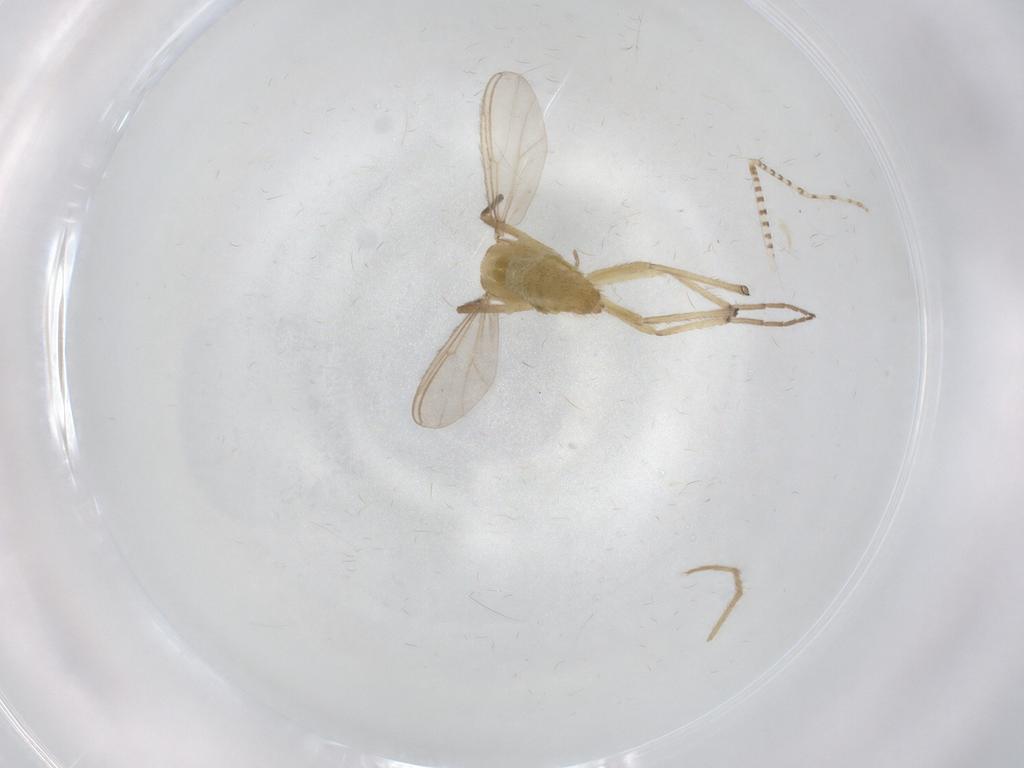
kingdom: Animalia
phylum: Arthropoda
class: Insecta
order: Diptera
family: Chironomidae
